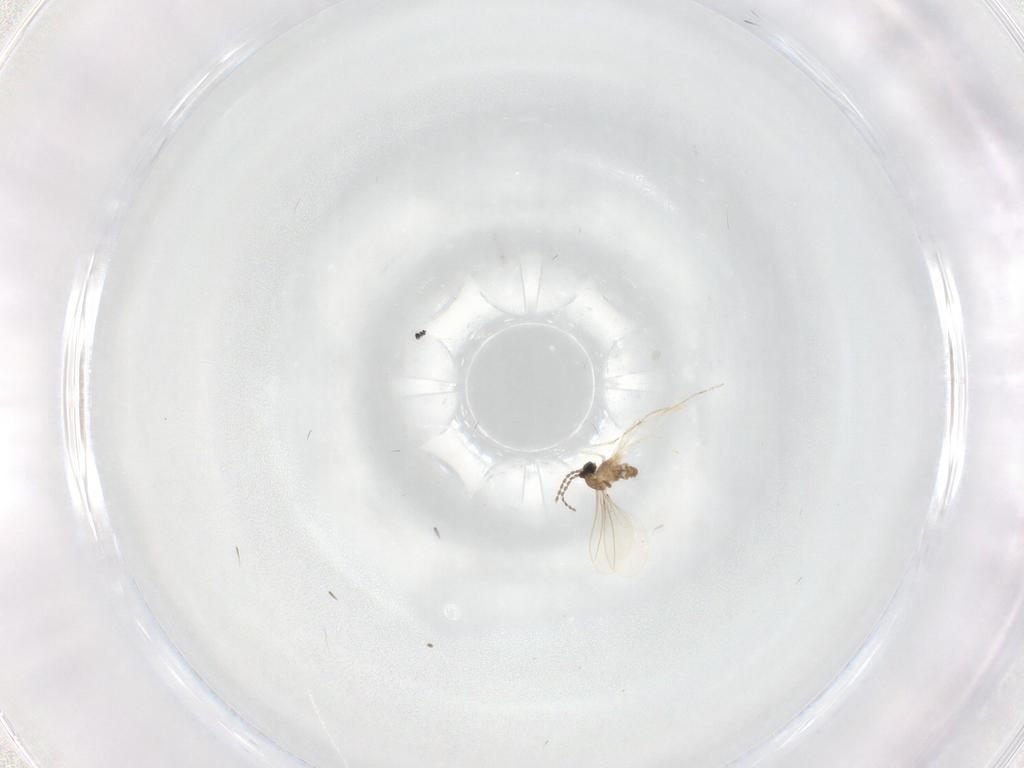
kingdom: Animalia
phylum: Arthropoda
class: Insecta
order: Diptera
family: Cecidomyiidae
